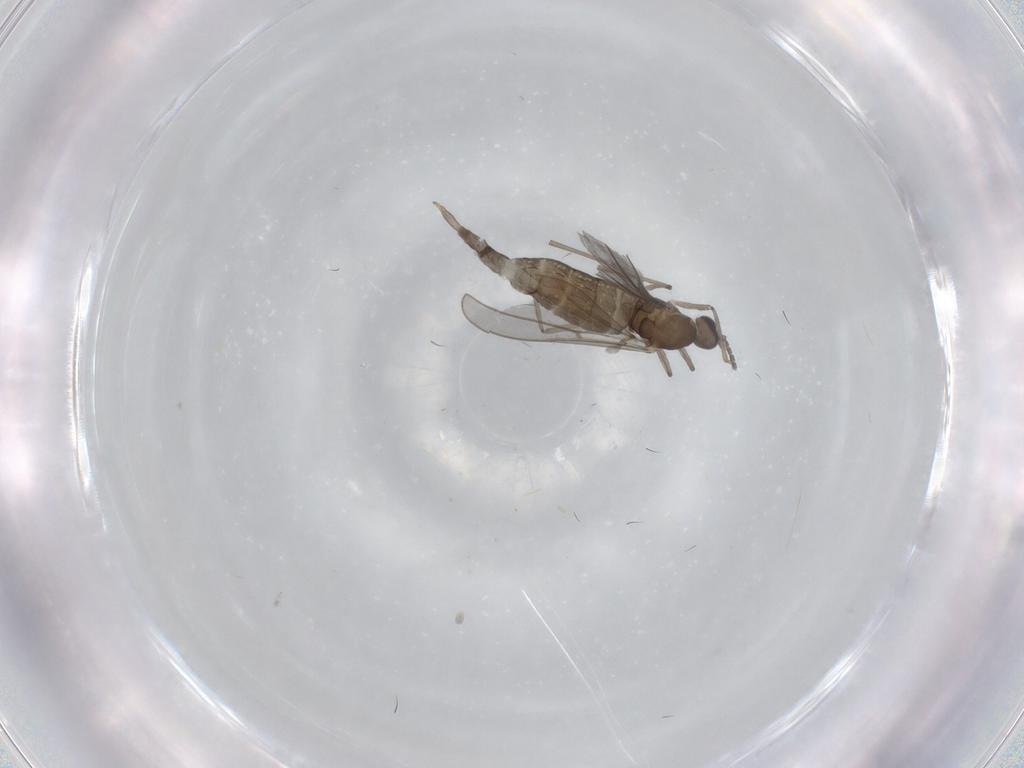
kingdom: Animalia
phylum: Arthropoda
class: Insecta
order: Diptera
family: Cecidomyiidae
